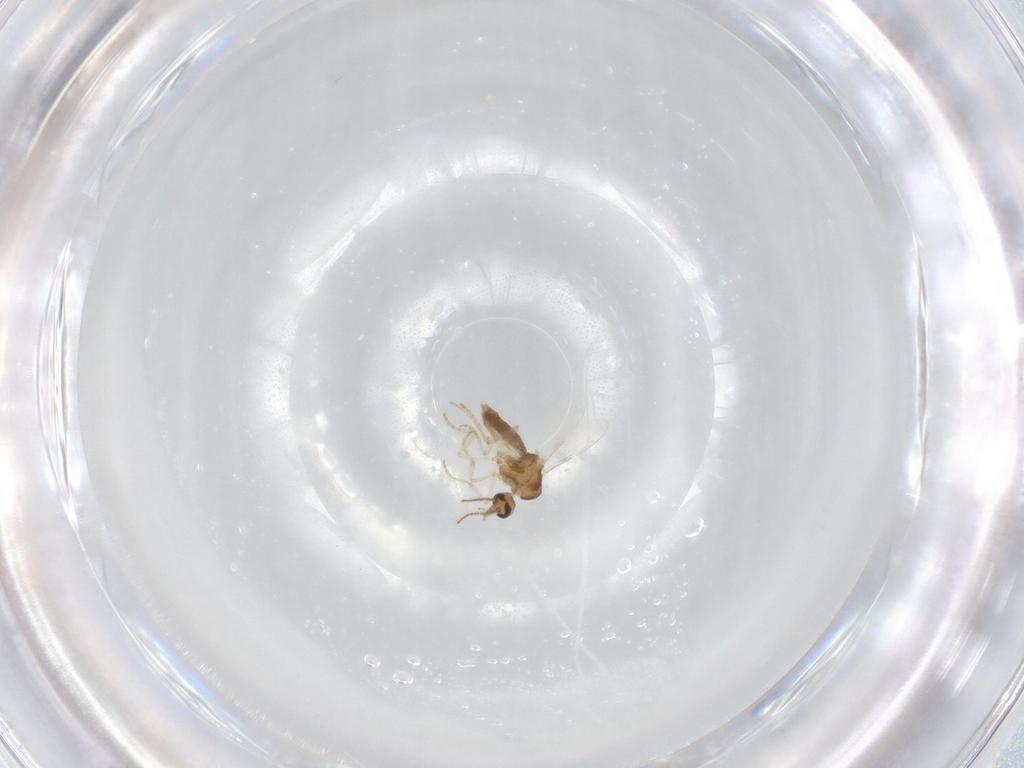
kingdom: Animalia
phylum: Arthropoda
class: Insecta
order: Diptera
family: Ceratopogonidae
